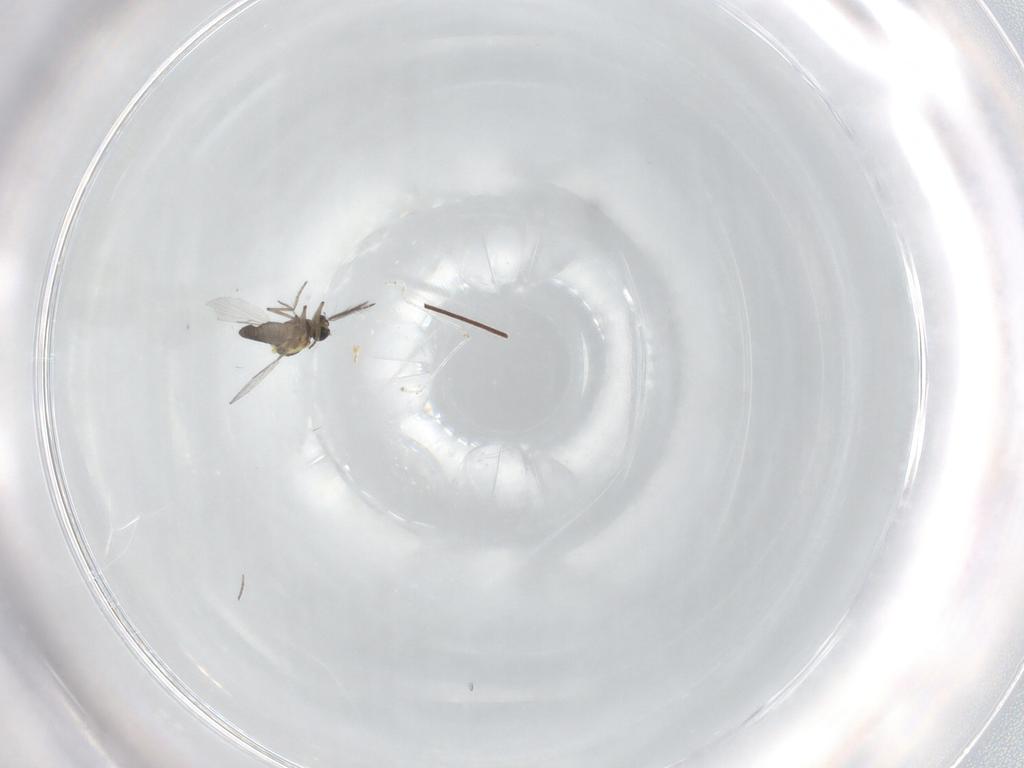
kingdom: Animalia
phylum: Arthropoda
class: Insecta
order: Diptera
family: Ceratopogonidae
